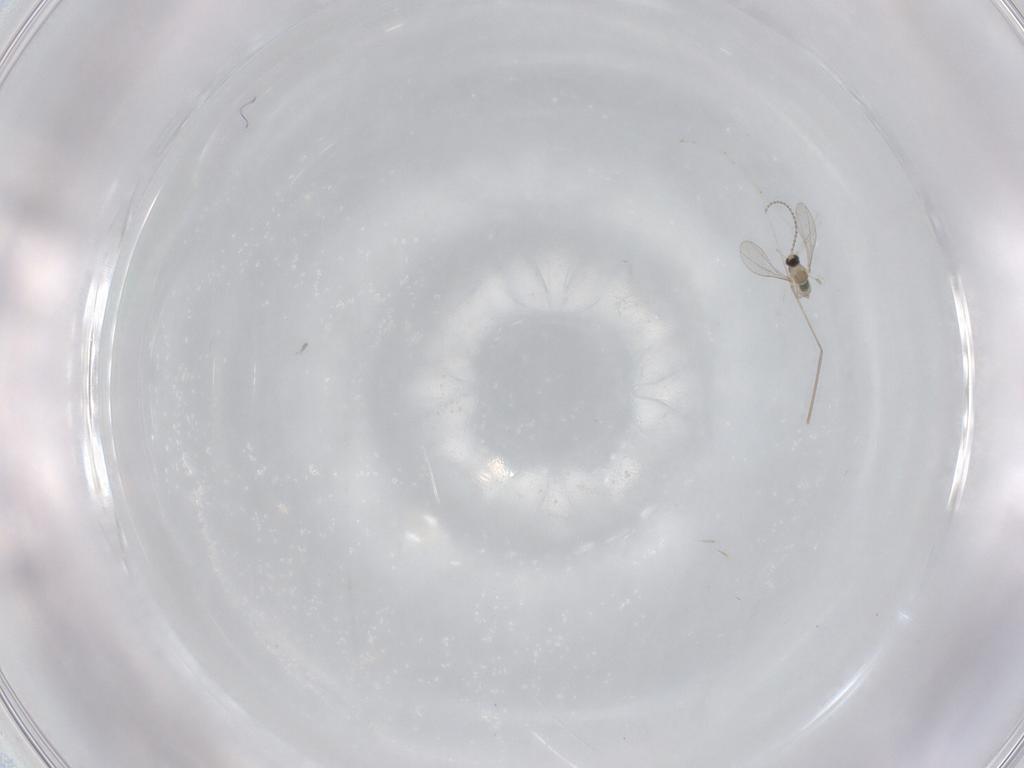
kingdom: Animalia
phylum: Arthropoda
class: Insecta
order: Diptera
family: Cecidomyiidae
